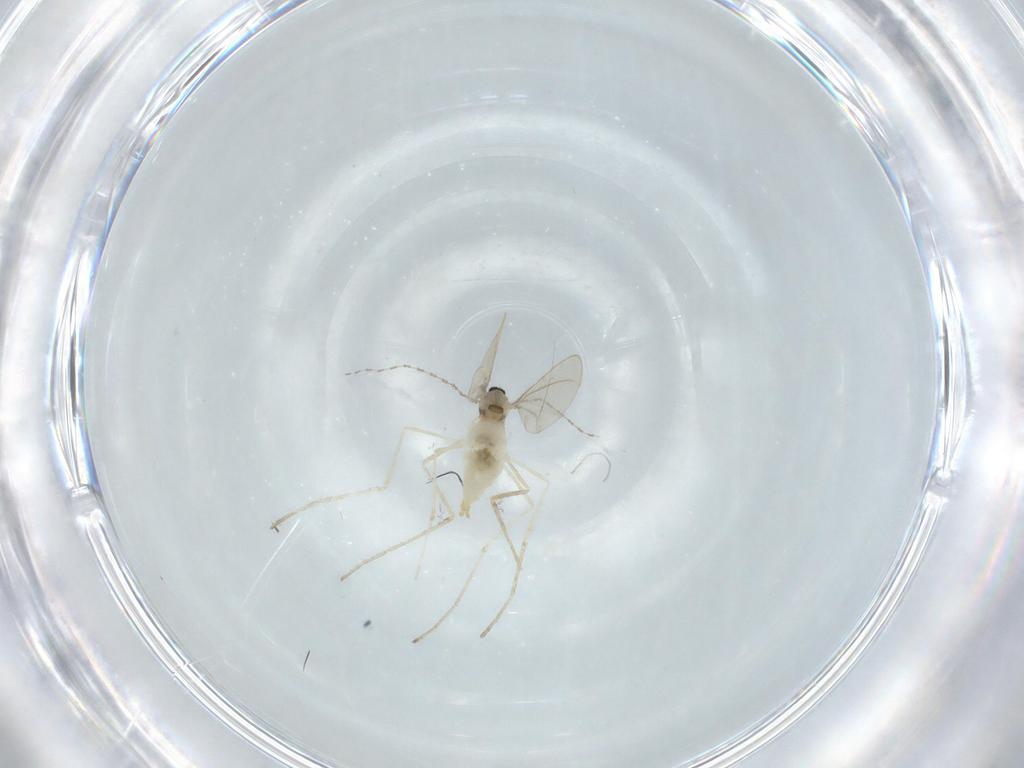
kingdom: Animalia
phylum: Arthropoda
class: Insecta
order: Diptera
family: Cecidomyiidae
